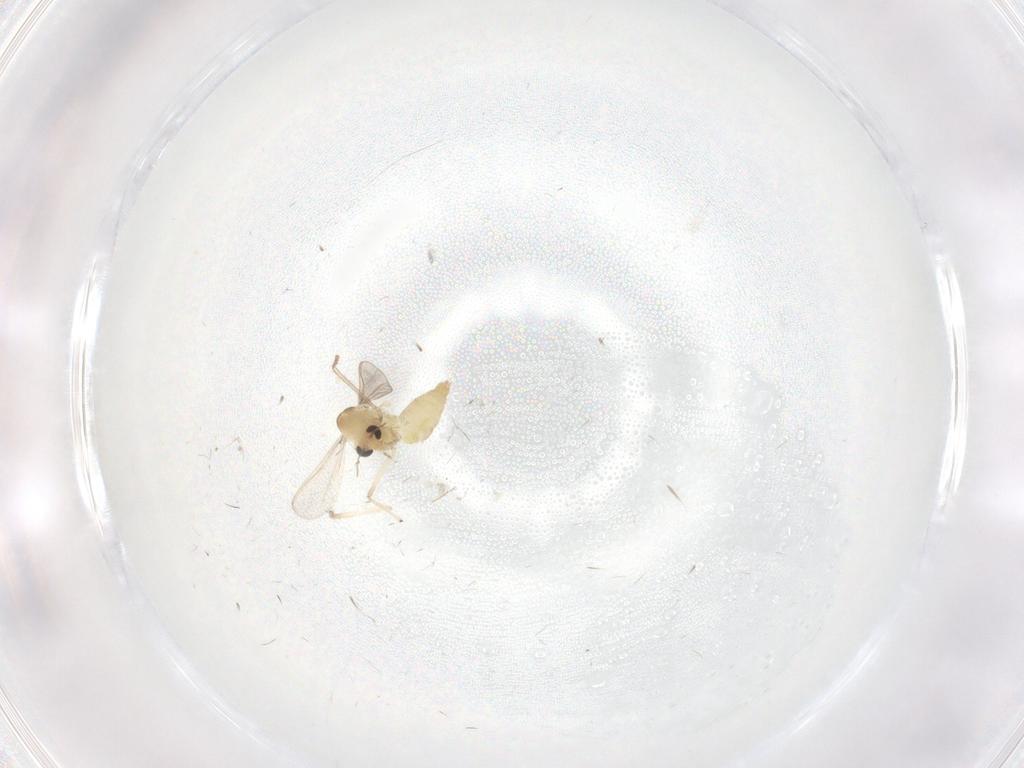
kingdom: Animalia
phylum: Arthropoda
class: Insecta
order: Diptera
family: Chironomidae
